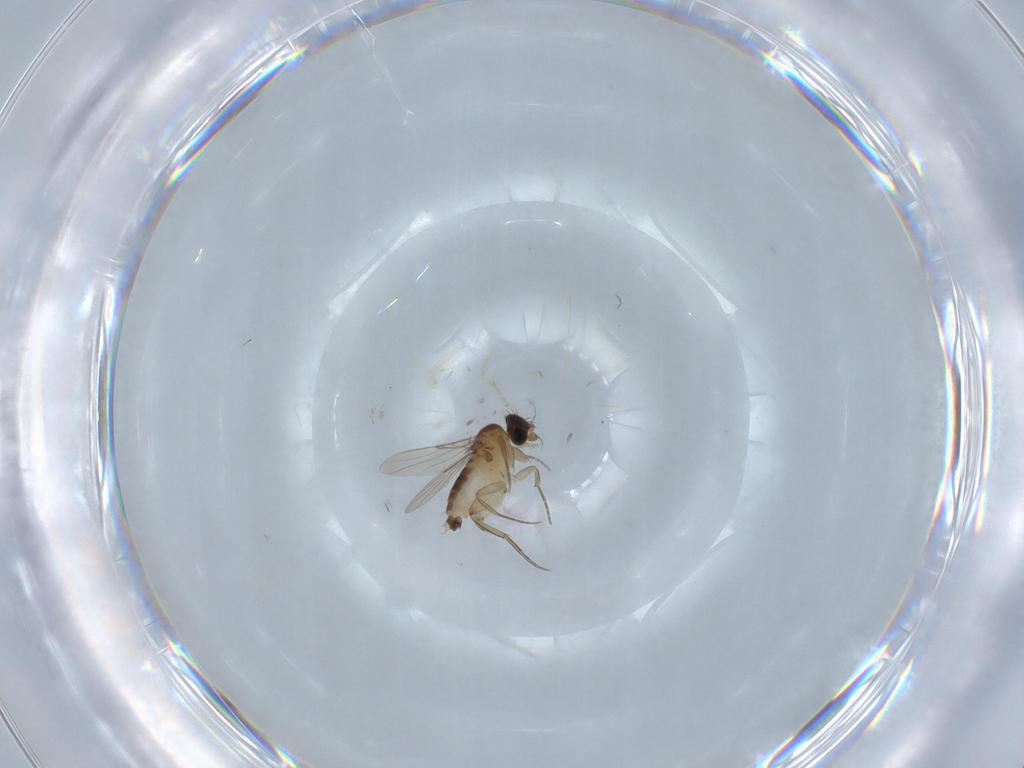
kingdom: Animalia
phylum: Arthropoda
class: Insecta
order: Diptera
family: Phoridae
